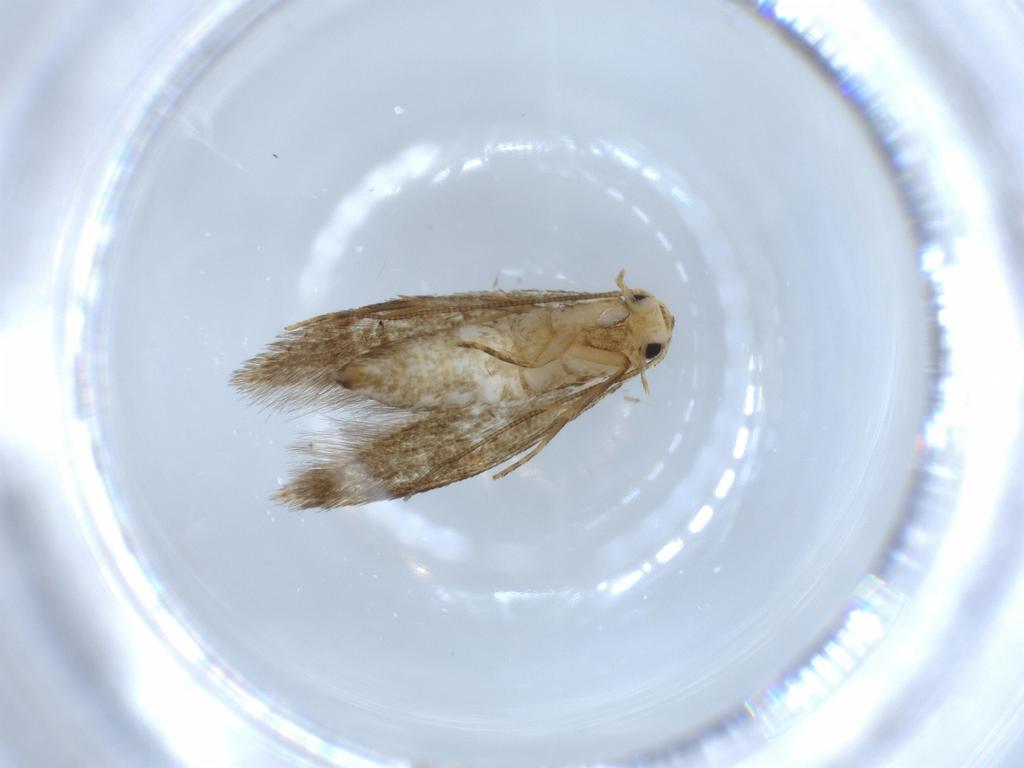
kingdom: Animalia
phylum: Arthropoda
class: Insecta
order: Lepidoptera
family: Tineidae
